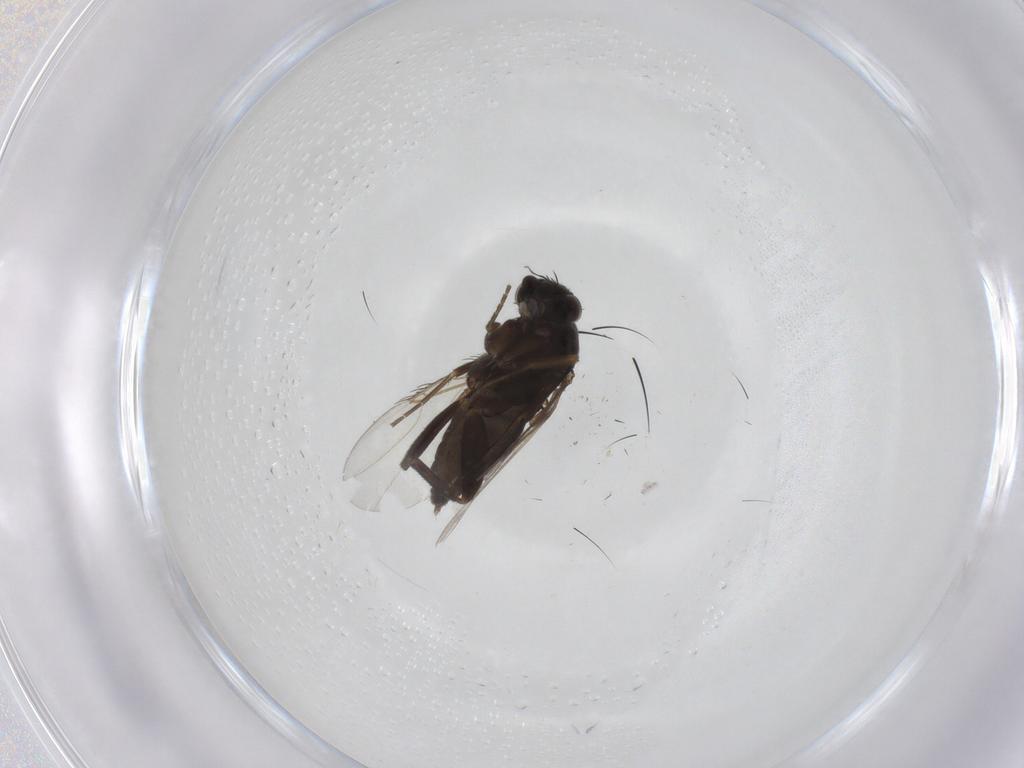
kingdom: Animalia
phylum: Arthropoda
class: Insecta
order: Diptera
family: Phoridae
